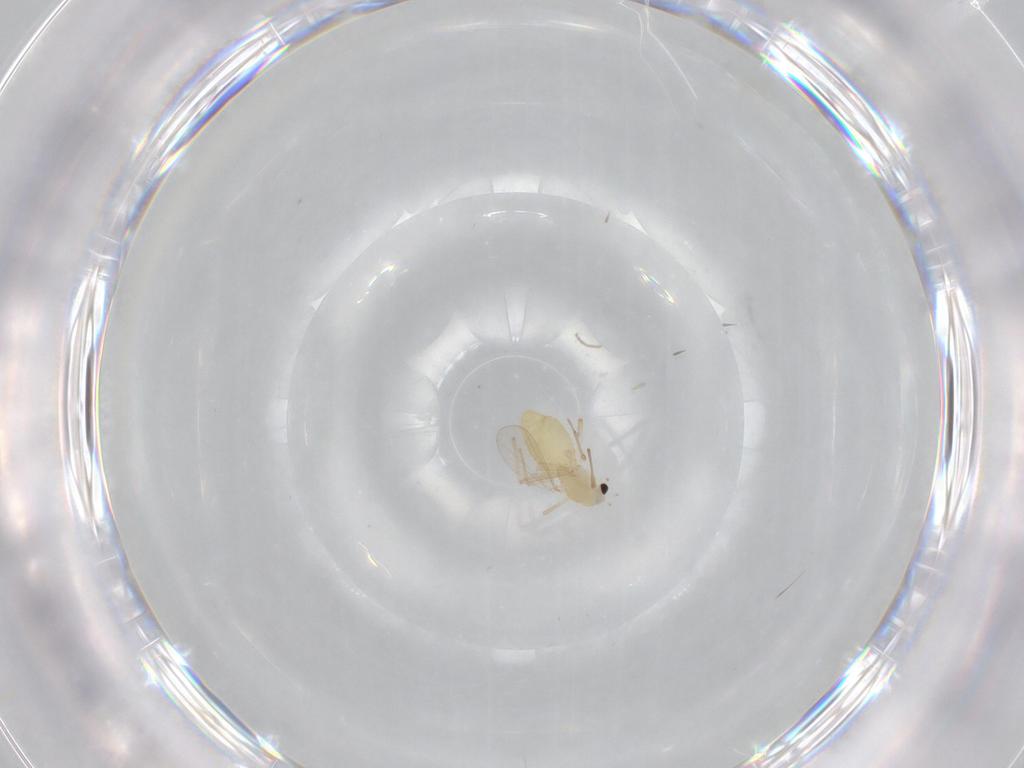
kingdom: Animalia
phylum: Arthropoda
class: Insecta
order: Diptera
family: Chironomidae
